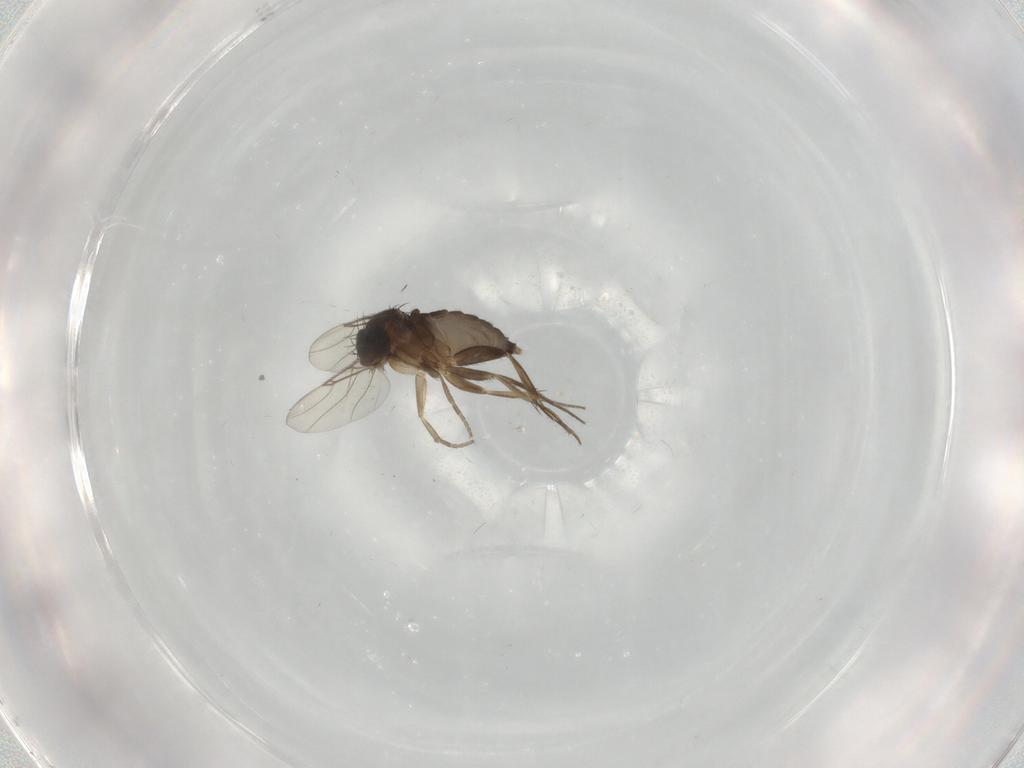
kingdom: Animalia
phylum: Arthropoda
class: Insecta
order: Diptera
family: Phoridae
